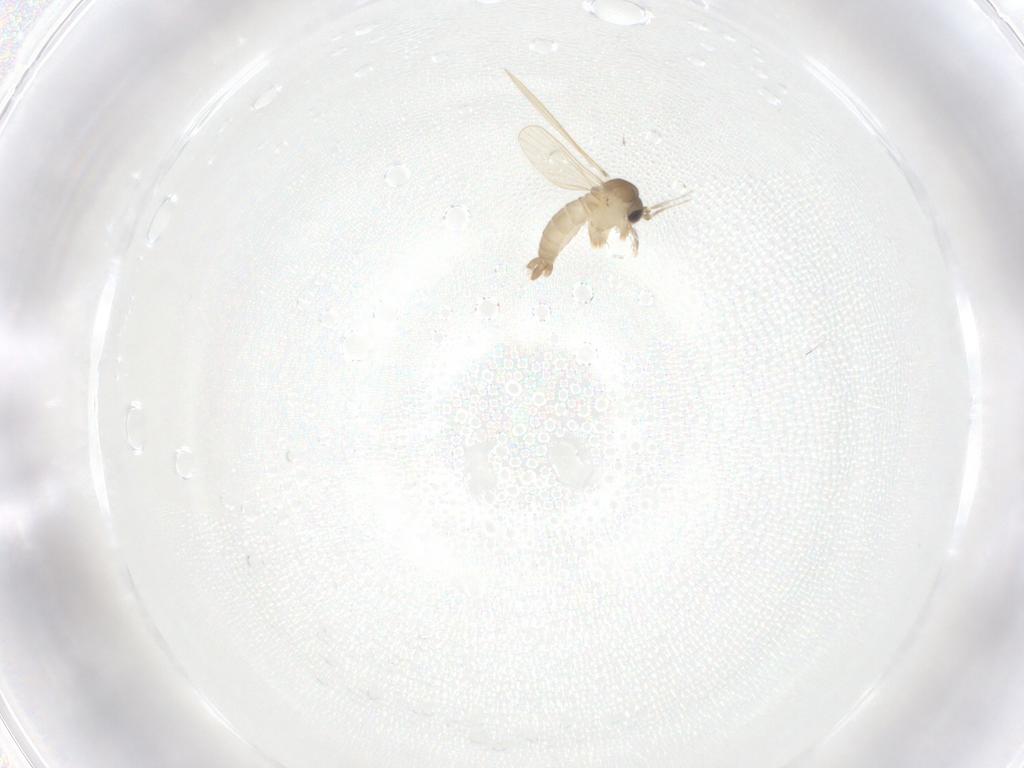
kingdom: Animalia
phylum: Arthropoda
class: Insecta
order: Diptera
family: Psychodidae
